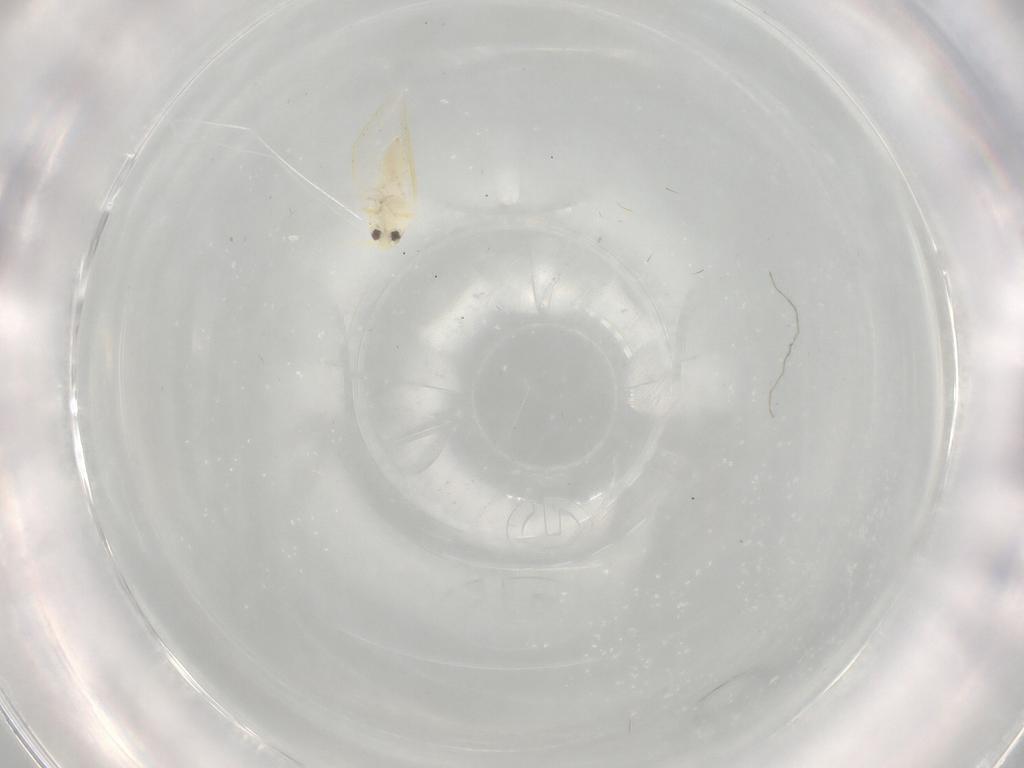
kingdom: Animalia
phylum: Arthropoda
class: Insecta
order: Hemiptera
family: Aleyrodidae
